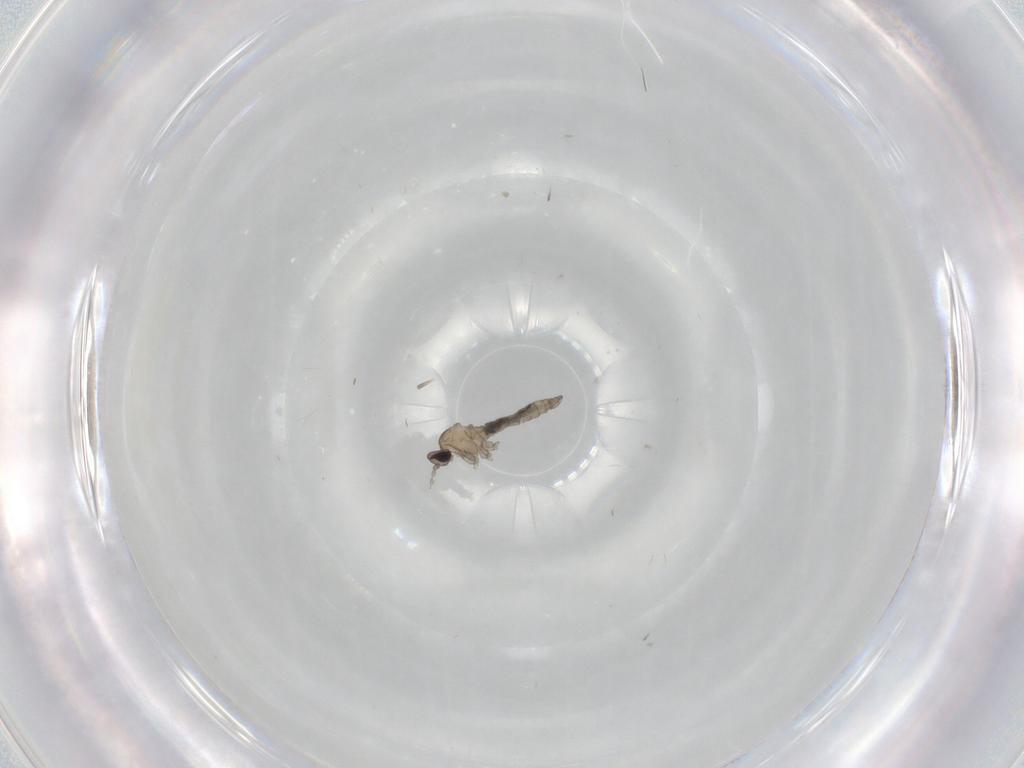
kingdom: Animalia
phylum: Arthropoda
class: Insecta
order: Diptera
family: Cecidomyiidae
